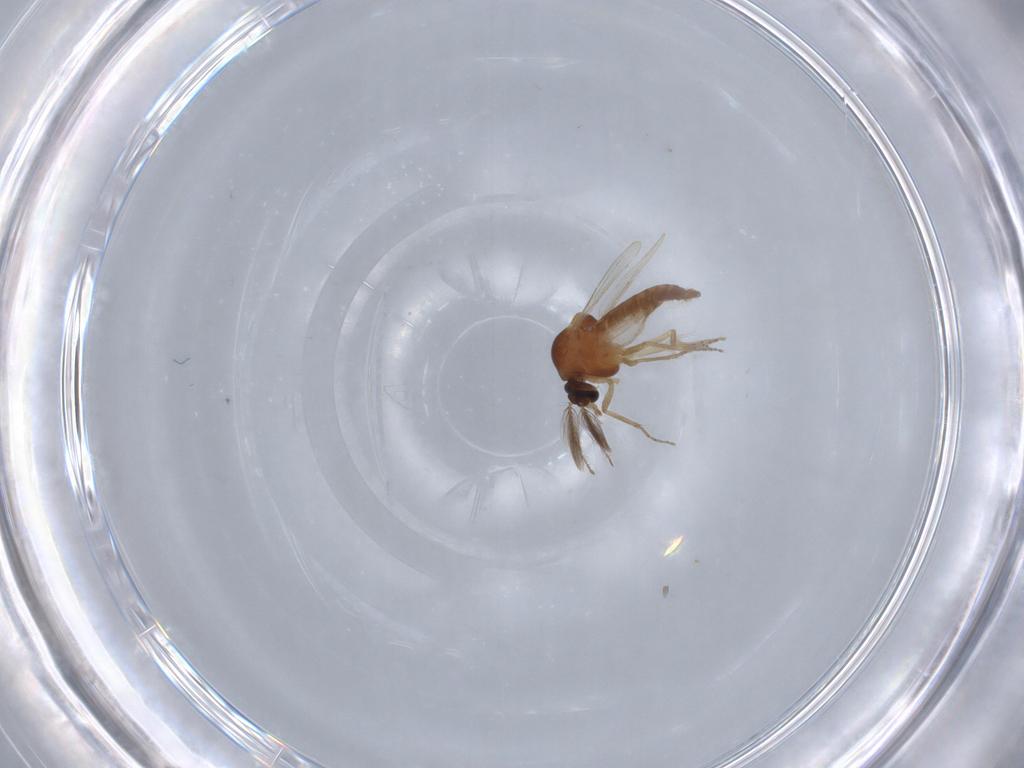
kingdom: Animalia
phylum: Arthropoda
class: Insecta
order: Diptera
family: Ceratopogonidae
